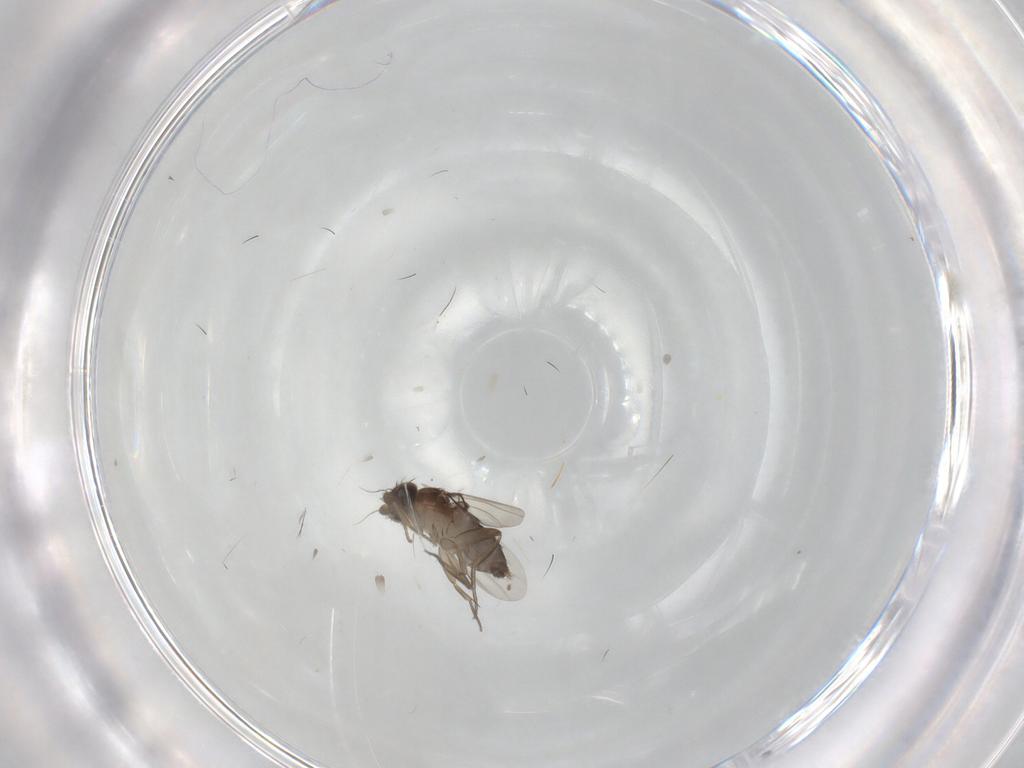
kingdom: Animalia
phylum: Arthropoda
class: Insecta
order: Diptera
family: Phoridae
